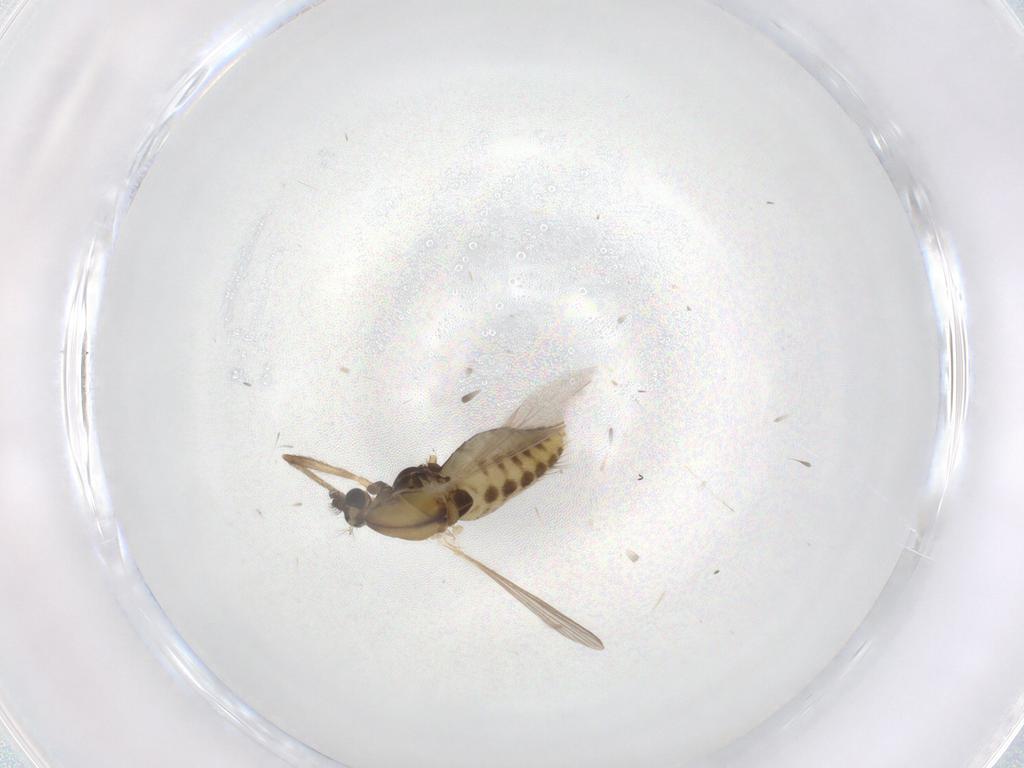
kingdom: Animalia
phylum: Arthropoda
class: Insecta
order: Diptera
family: Chironomidae
